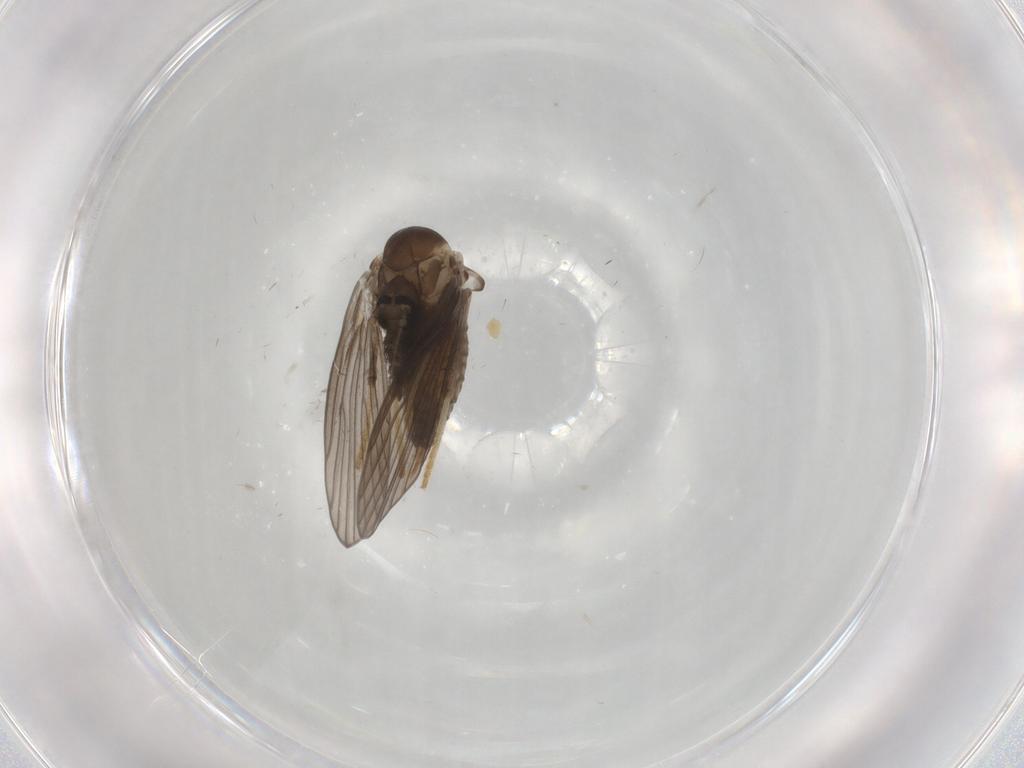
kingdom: Animalia
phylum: Arthropoda
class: Insecta
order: Diptera
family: Psychodidae
